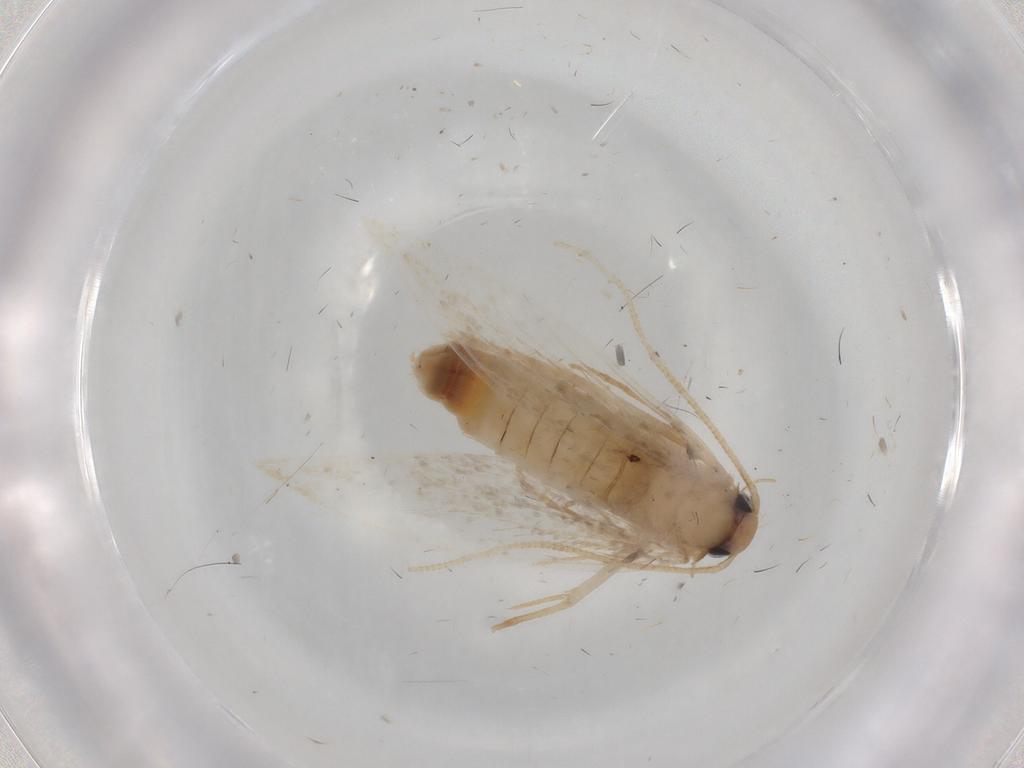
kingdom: Animalia
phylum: Arthropoda
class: Insecta
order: Lepidoptera
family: Cosmopterigidae
